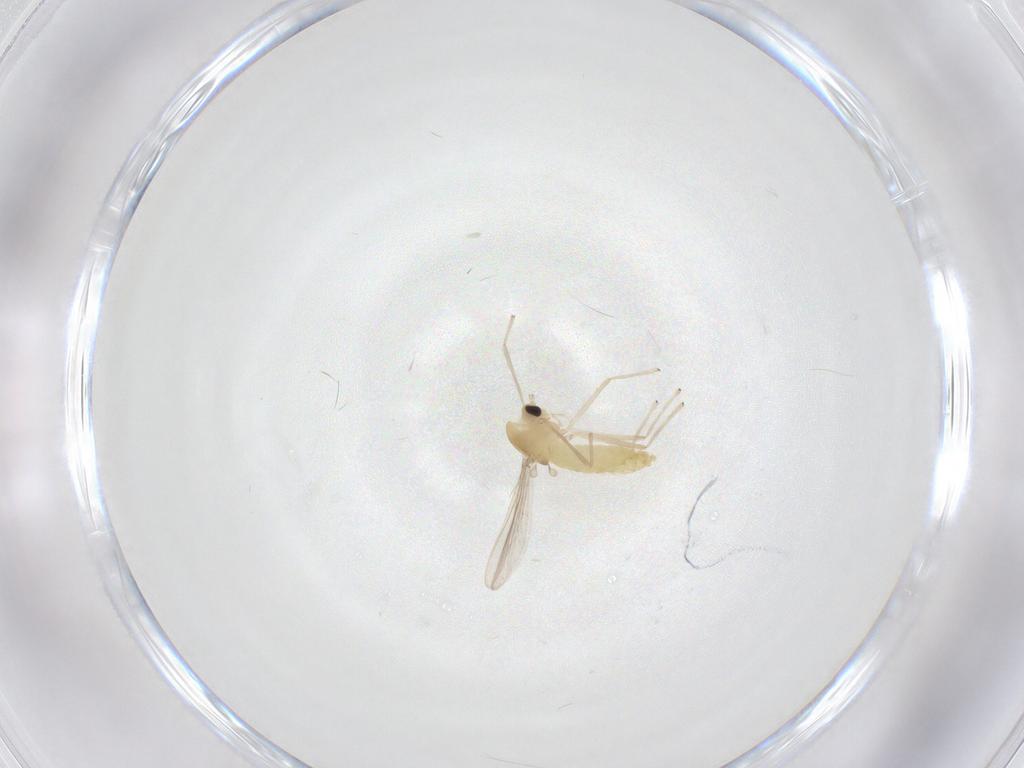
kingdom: Animalia
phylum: Arthropoda
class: Insecta
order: Diptera
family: Chironomidae
